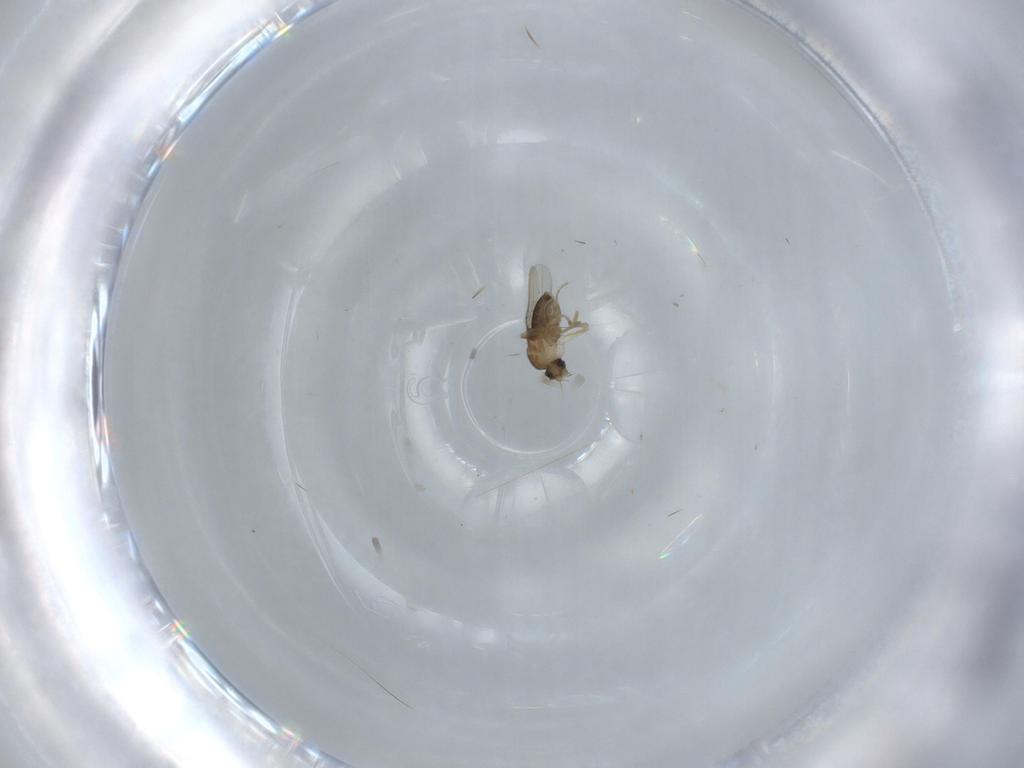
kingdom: Animalia
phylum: Arthropoda
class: Insecta
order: Diptera
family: Phoridae
